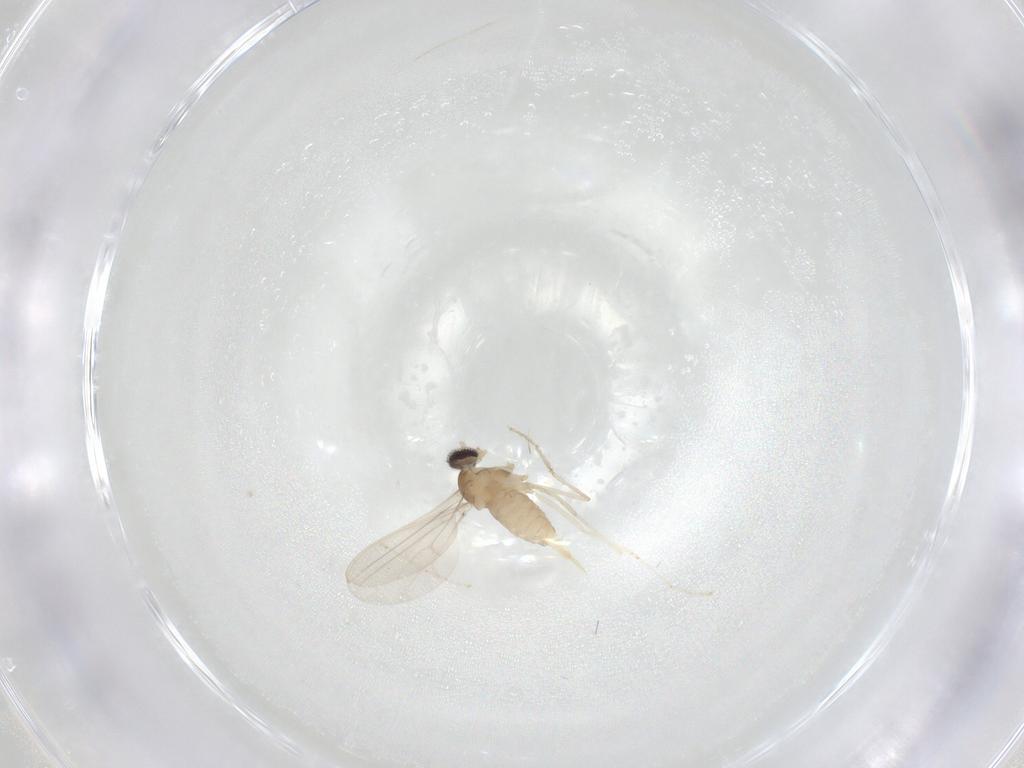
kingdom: Animalia
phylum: Arthropoda
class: Insecta
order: Diptera
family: Cecidomyiidae
